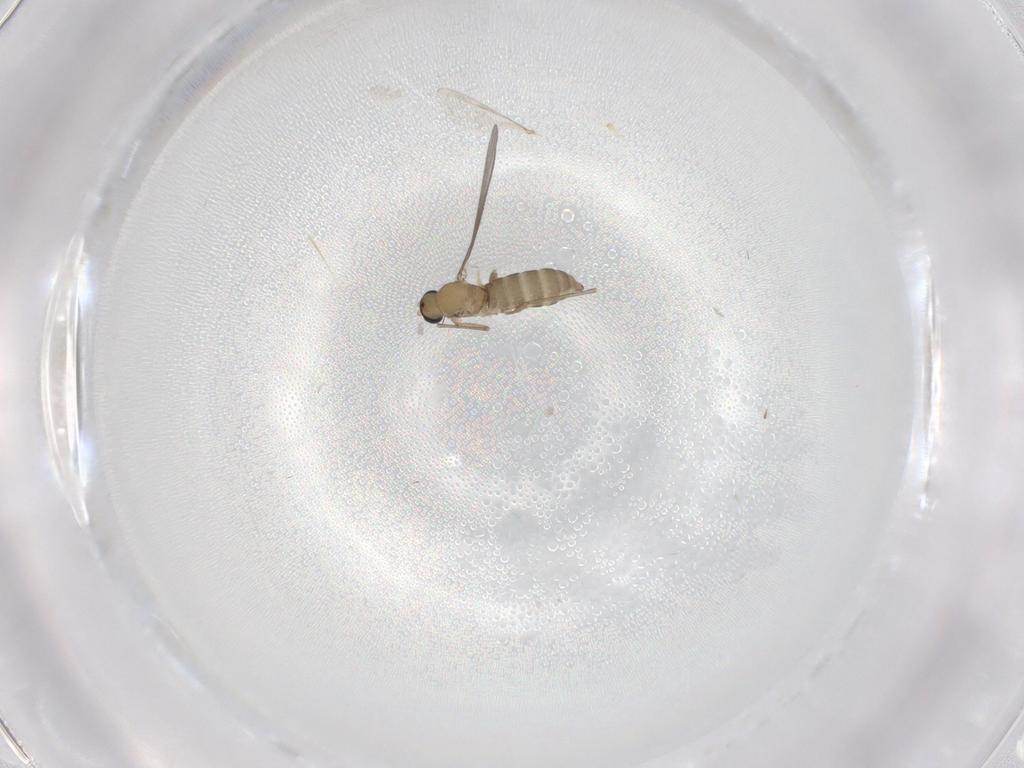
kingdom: Animalia
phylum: Arthropoda
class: Insecta
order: Diptera
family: Sciaridae
